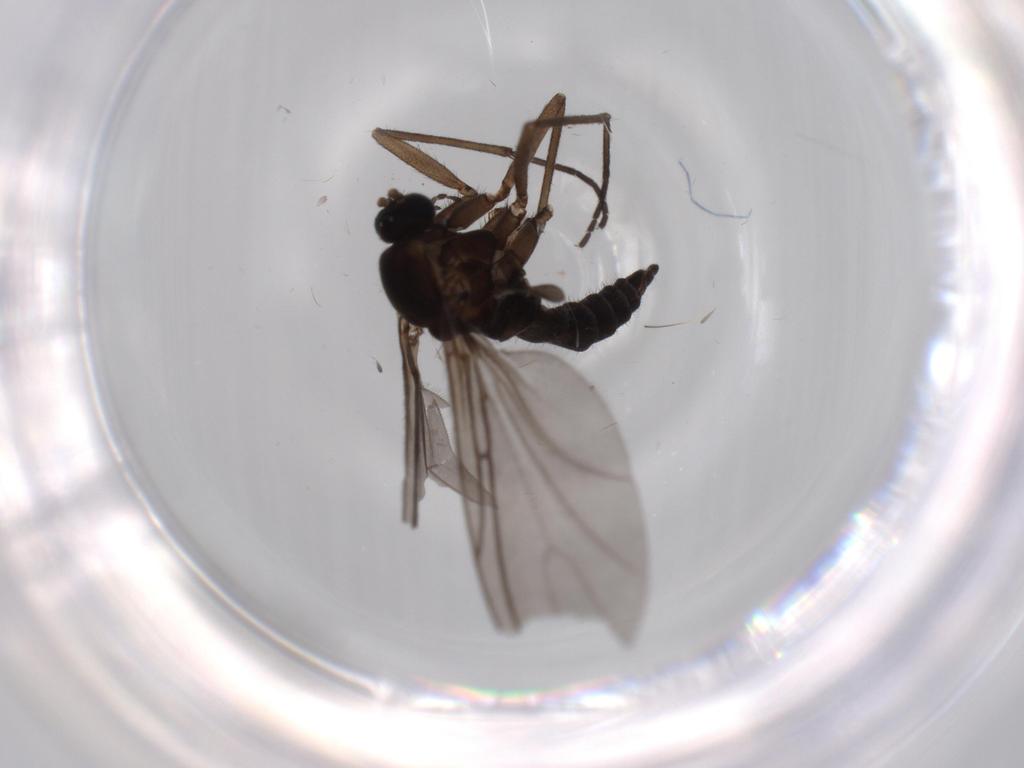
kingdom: Animalia
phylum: Arthropoda
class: Insecta
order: Diptera
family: Sciaridae
